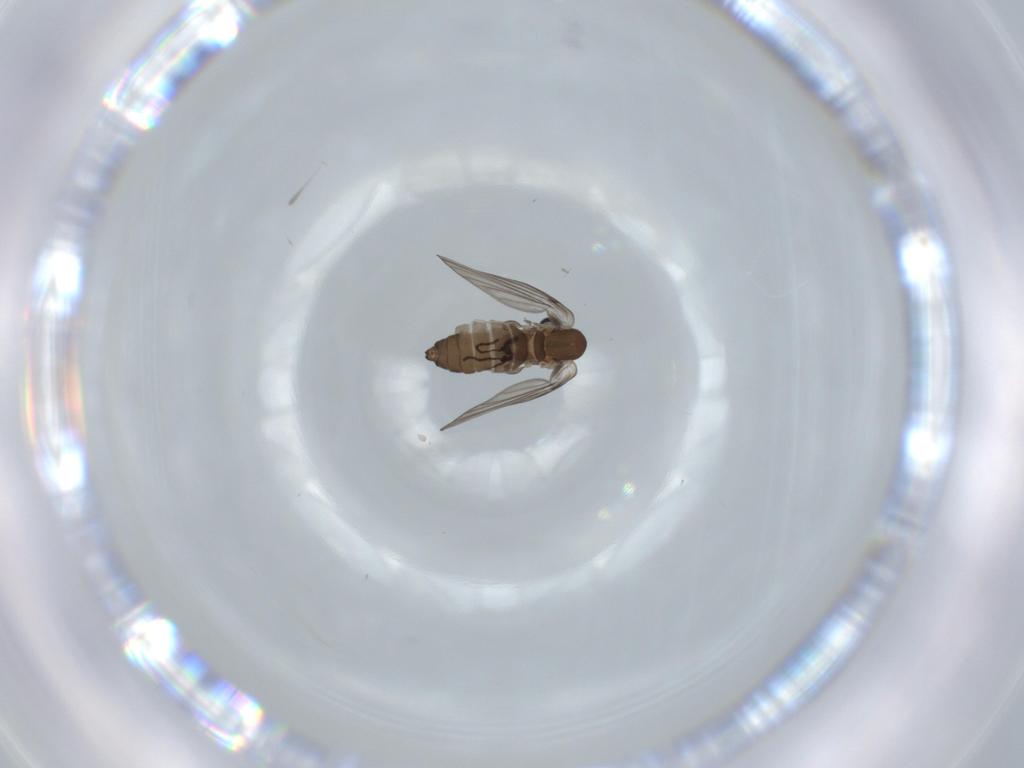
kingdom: Animalia
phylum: Arthropoda
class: Insecta
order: Diptera
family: Psychodidae
